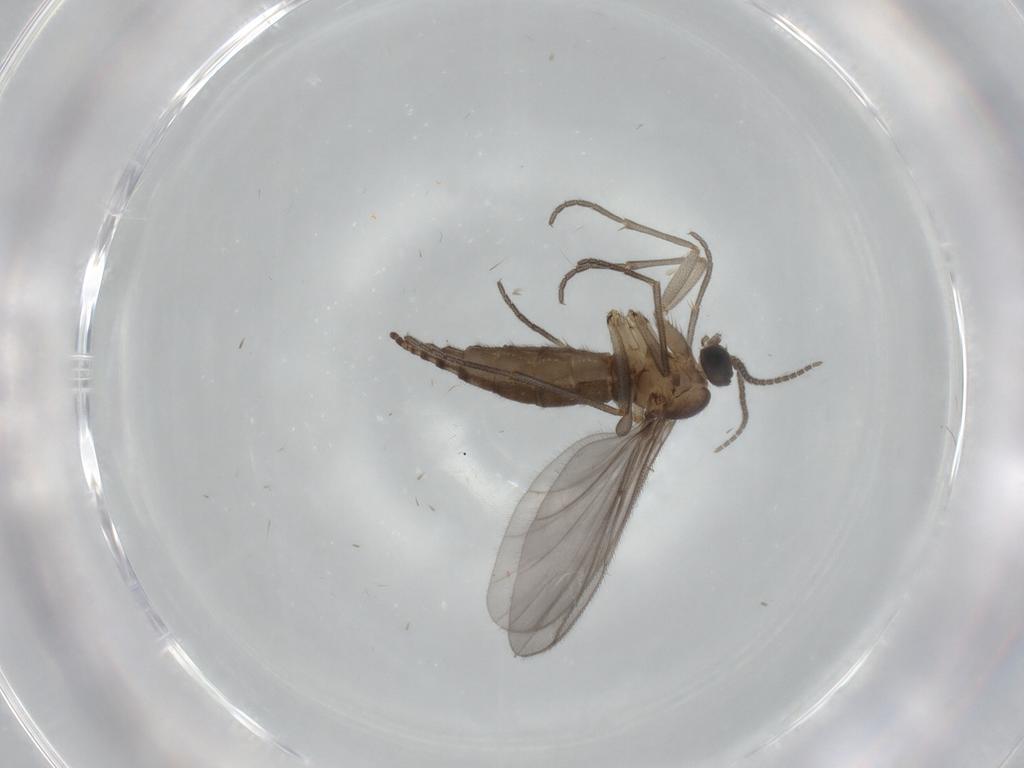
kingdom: Animalia
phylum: Arthropoda
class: Insecta
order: Diptera
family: Sciaridae
